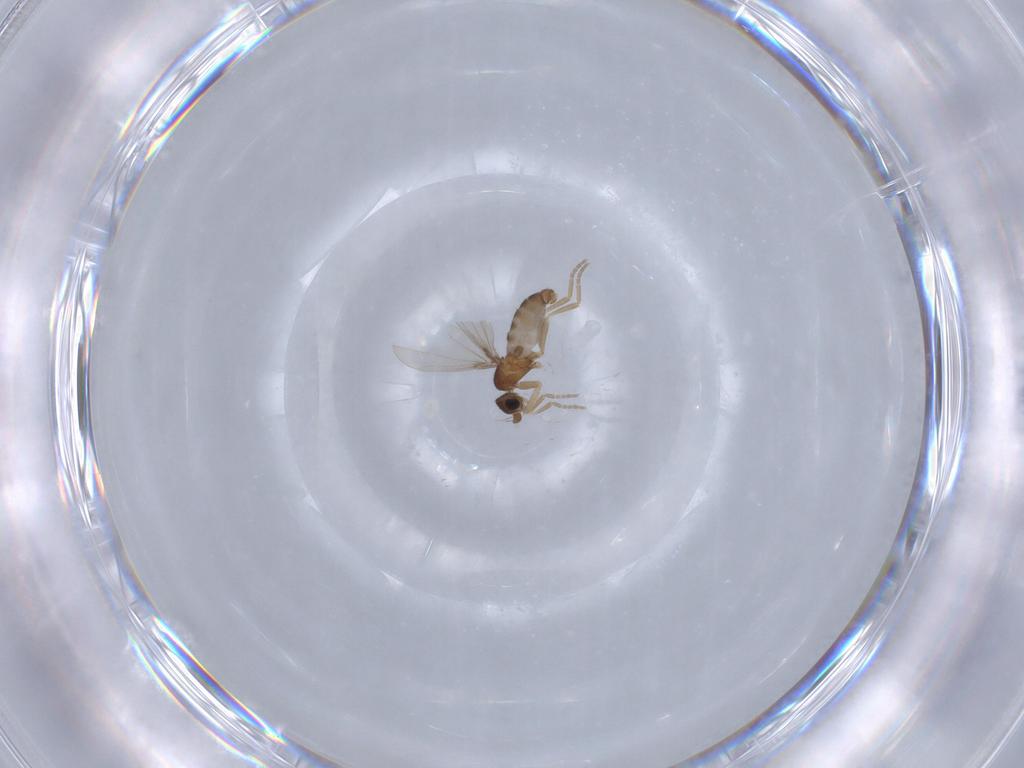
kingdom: Animalia
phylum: Arthropoda
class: Insecta
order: Diptera
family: Phoridae
